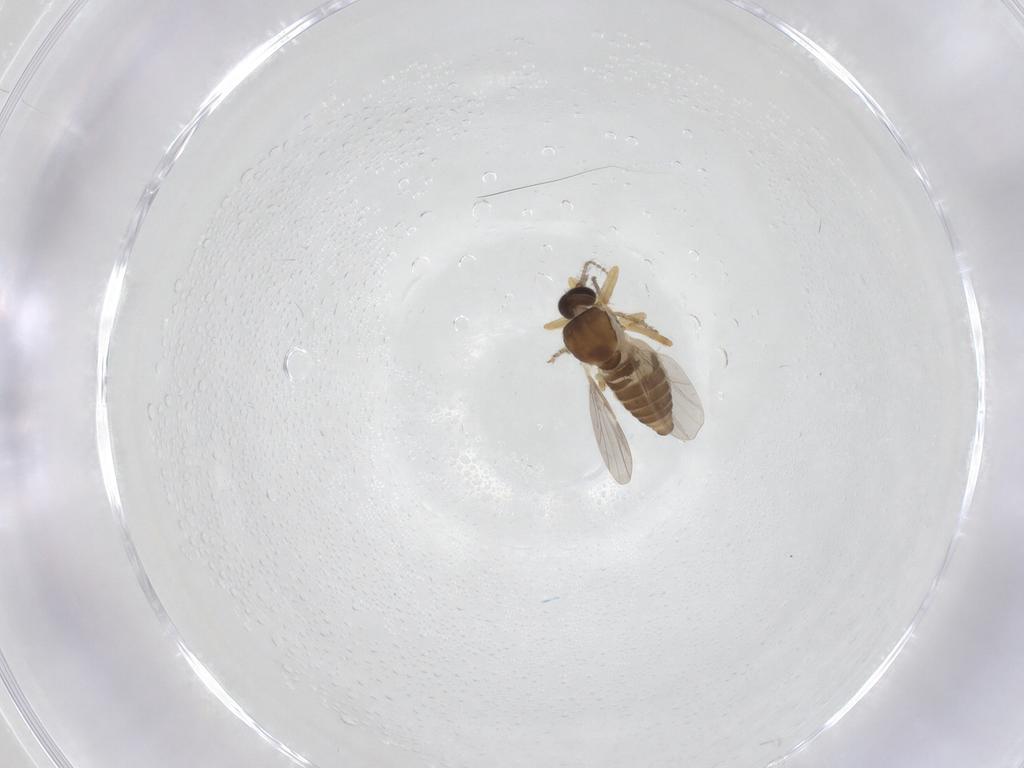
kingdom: Animalia
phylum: Arthropoda
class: Insecta
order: Diptera
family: Ceratopogonidae
